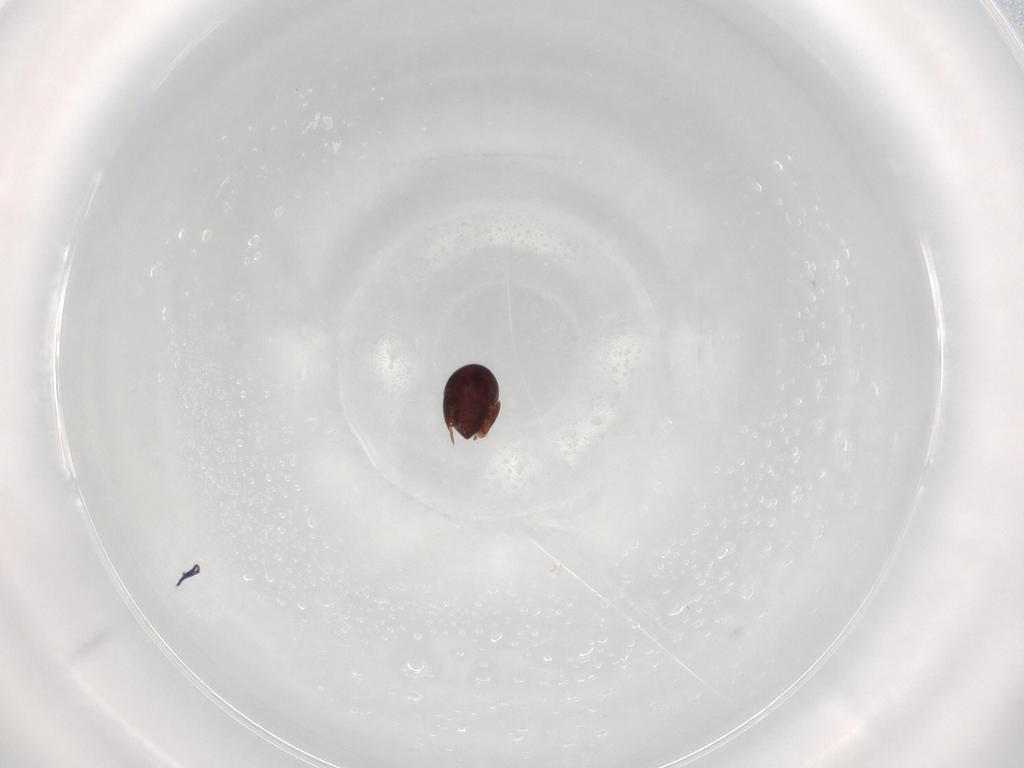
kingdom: Animalia
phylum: Arthropoda
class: Arachnida
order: Sarcoptiformes
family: Galumnidae
